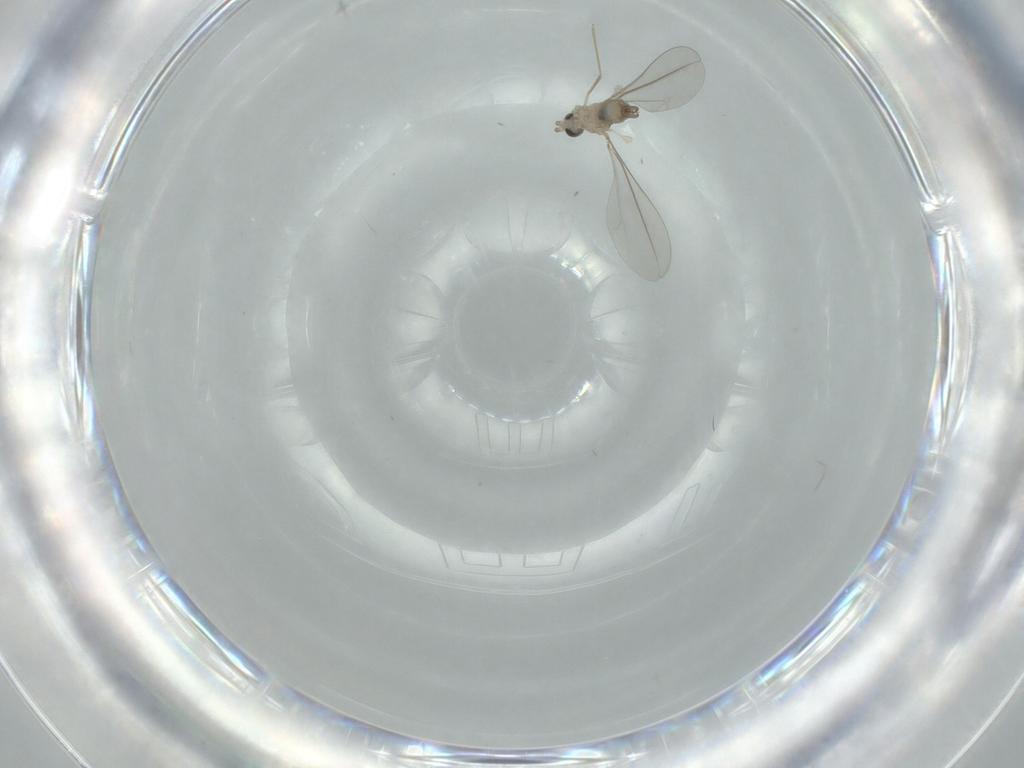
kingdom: Animalia
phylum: Arthropoda
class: Insecta
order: Diptera
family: Cecidomyiidae
